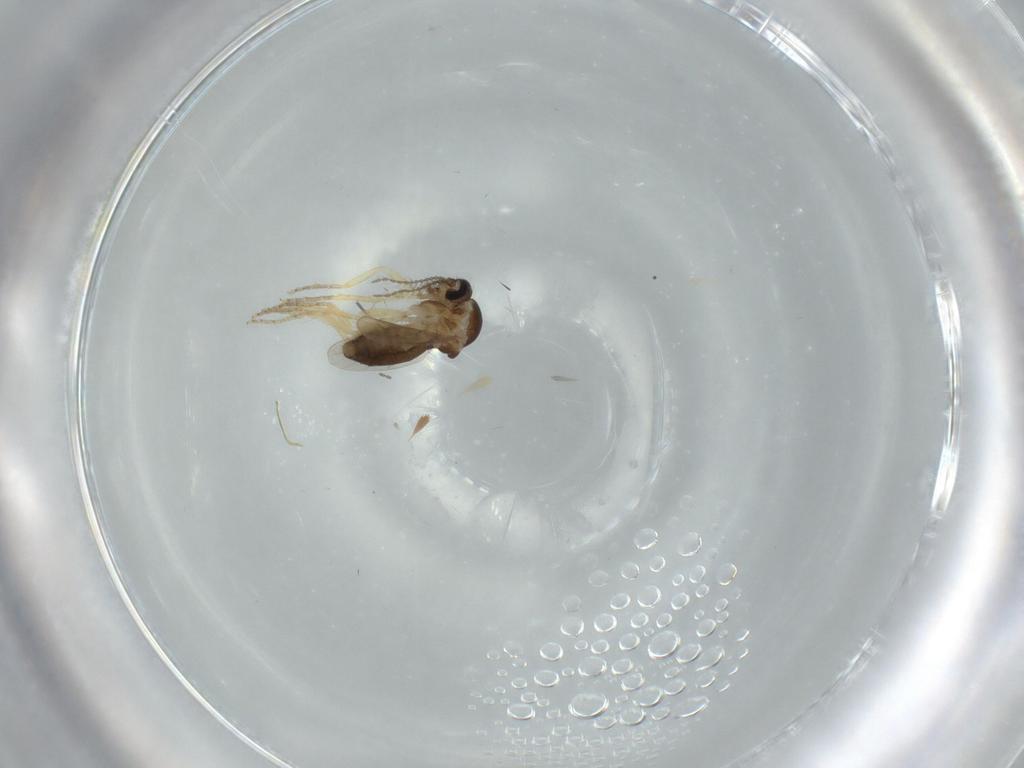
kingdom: Animalia
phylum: Arthropoda
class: Insecta
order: Diptera
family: Ceratopogonidae
